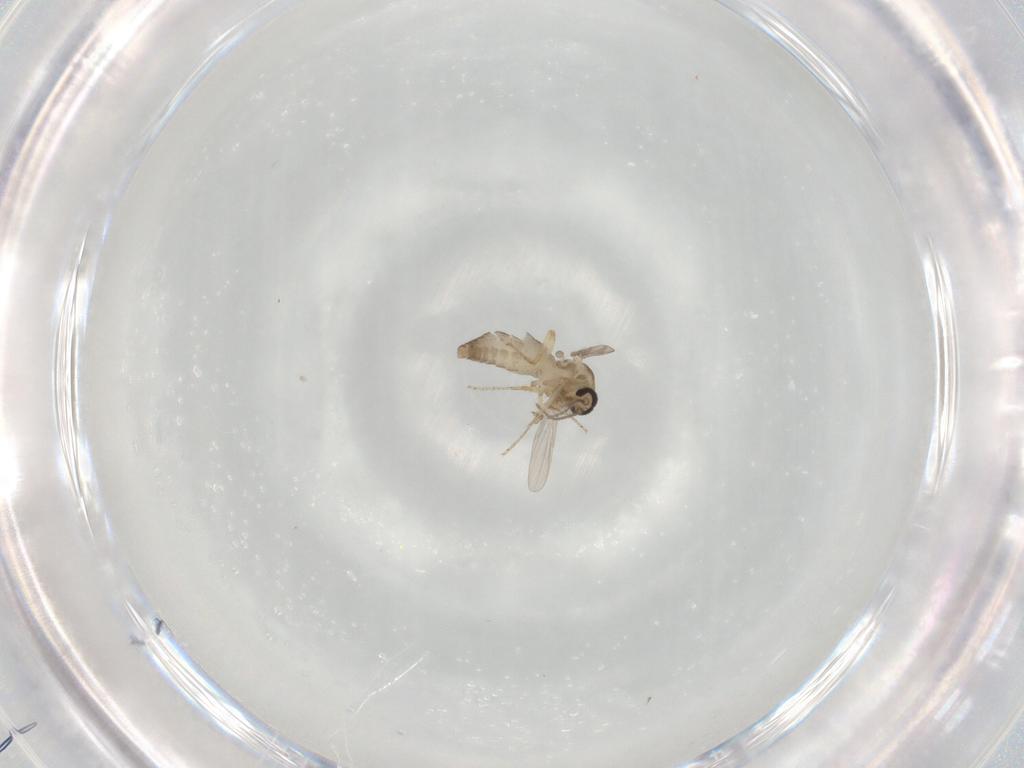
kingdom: Animalia
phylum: Arthropoda
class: Insecta
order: Diptera
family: Ceratopogonidae
